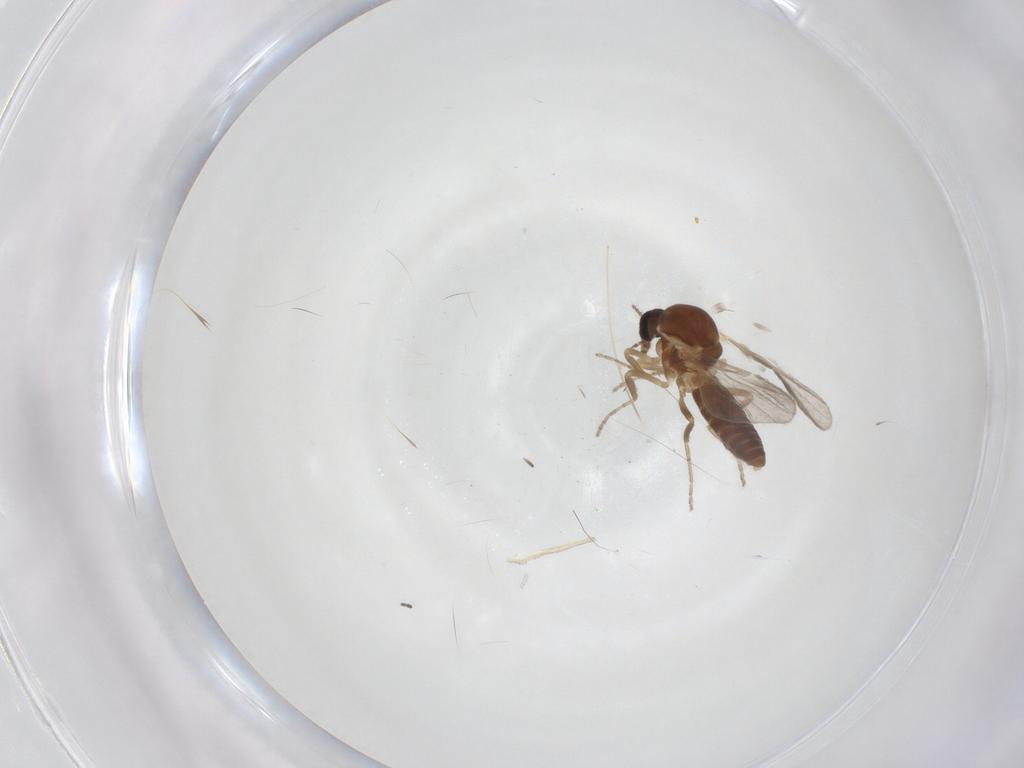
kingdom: Animalia
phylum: Arthropoda
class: Insecta
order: Diptera
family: Ceratopogonidae
